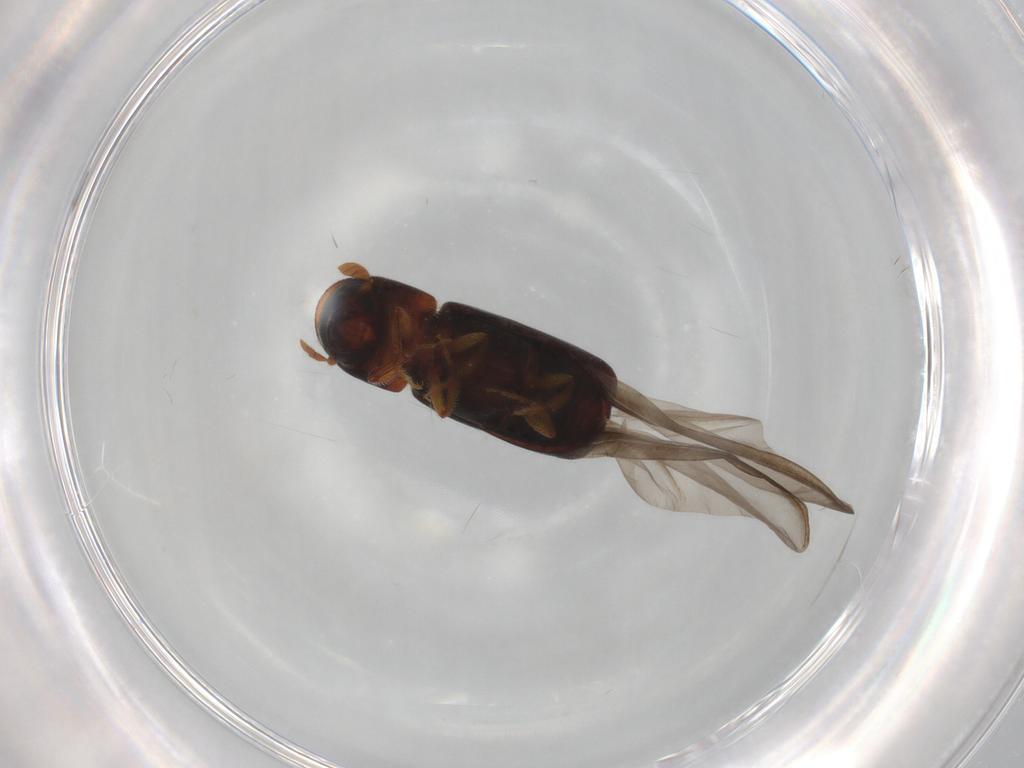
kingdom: Animalia
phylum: Arthropoda
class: Insecta
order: Coleoptera
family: Curculionidae
